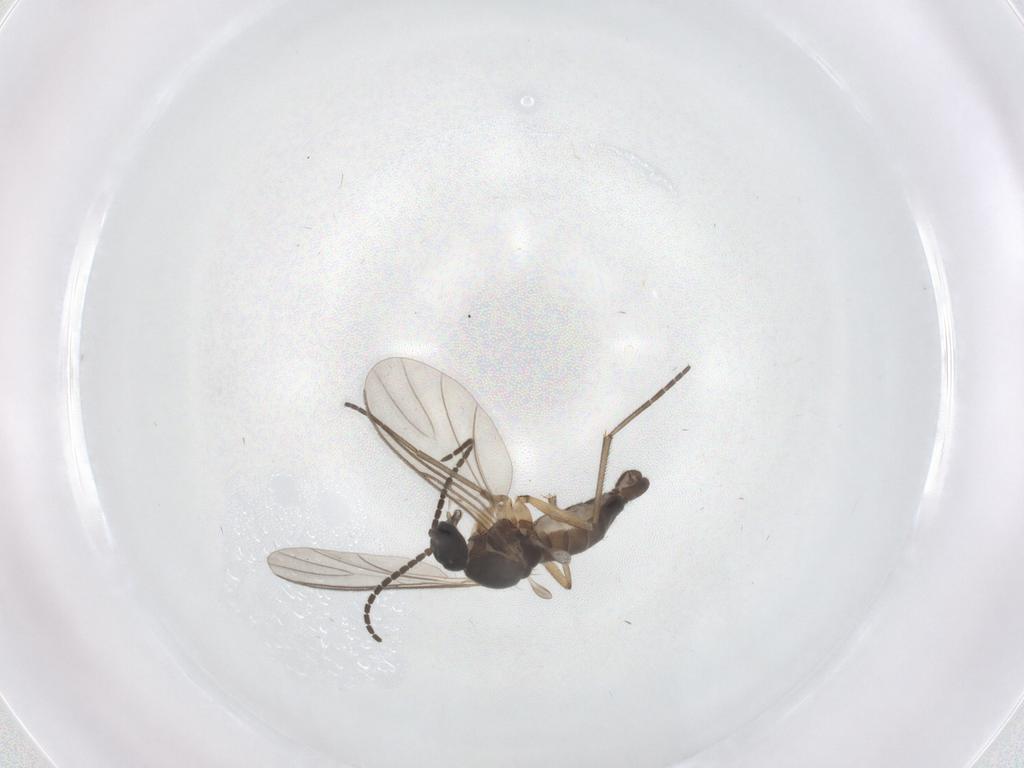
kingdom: Animalia
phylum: Arthropoda
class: Insecta
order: Diptera
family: Sciaridae
